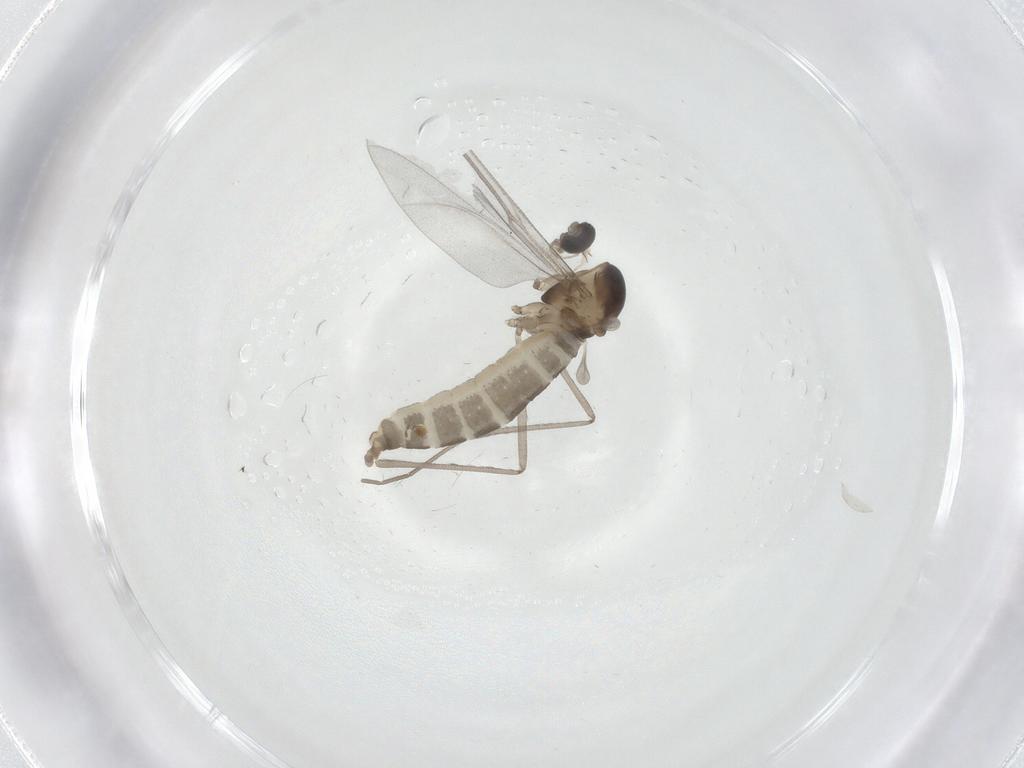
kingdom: Animalia
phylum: Arthropoda
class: Insecta
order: Diptera
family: Cecidomyiidae
